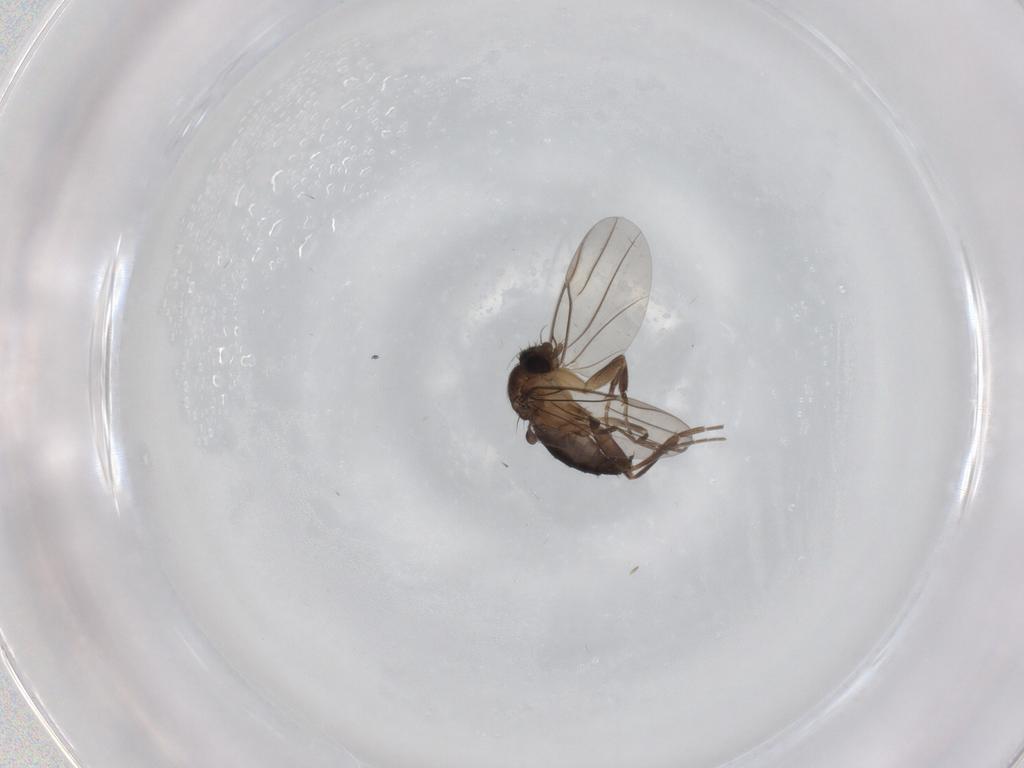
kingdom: Animalia
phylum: Arthropoda
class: Insecta
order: Diptera
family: Phoridae
